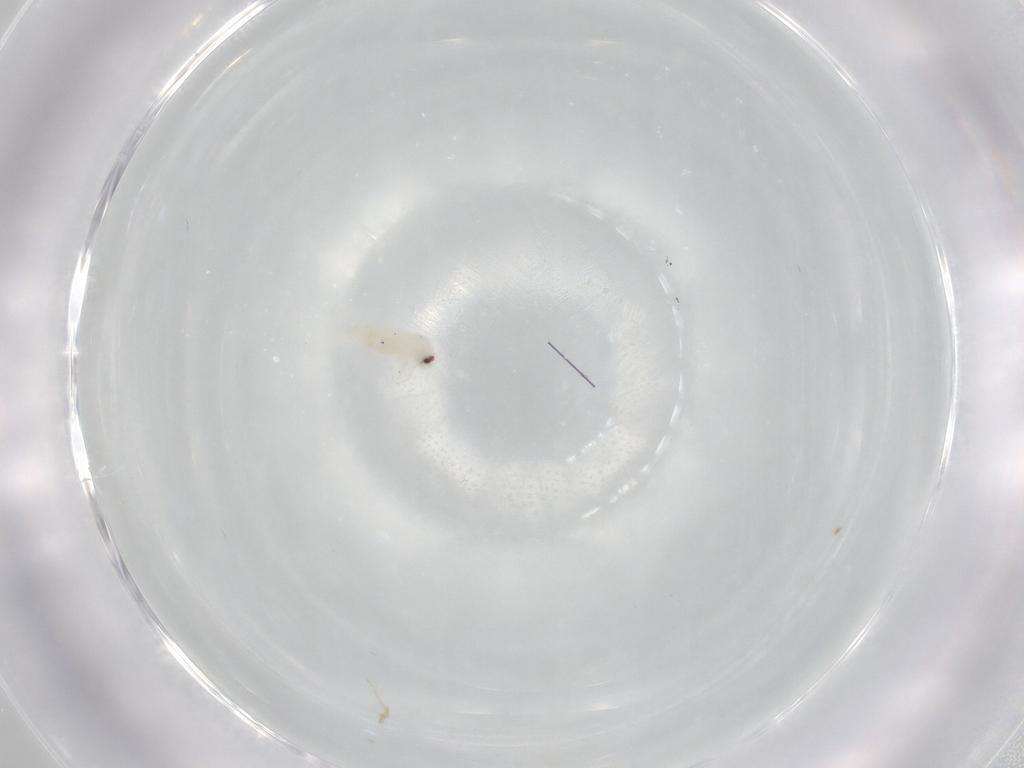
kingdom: Animalia
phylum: Arthropoda
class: Insecta
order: Hemiptera
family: Aleyrodidae
